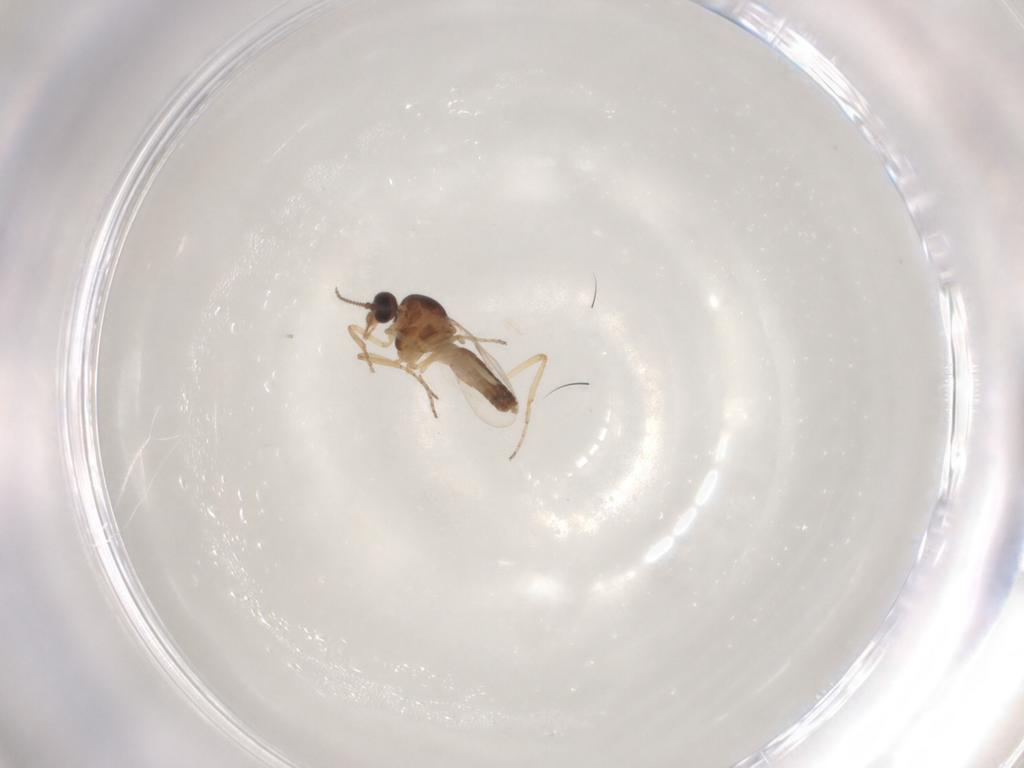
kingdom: Animalia
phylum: Arthropoda
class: Insecta
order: Diptera
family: Ceratopogonidae
